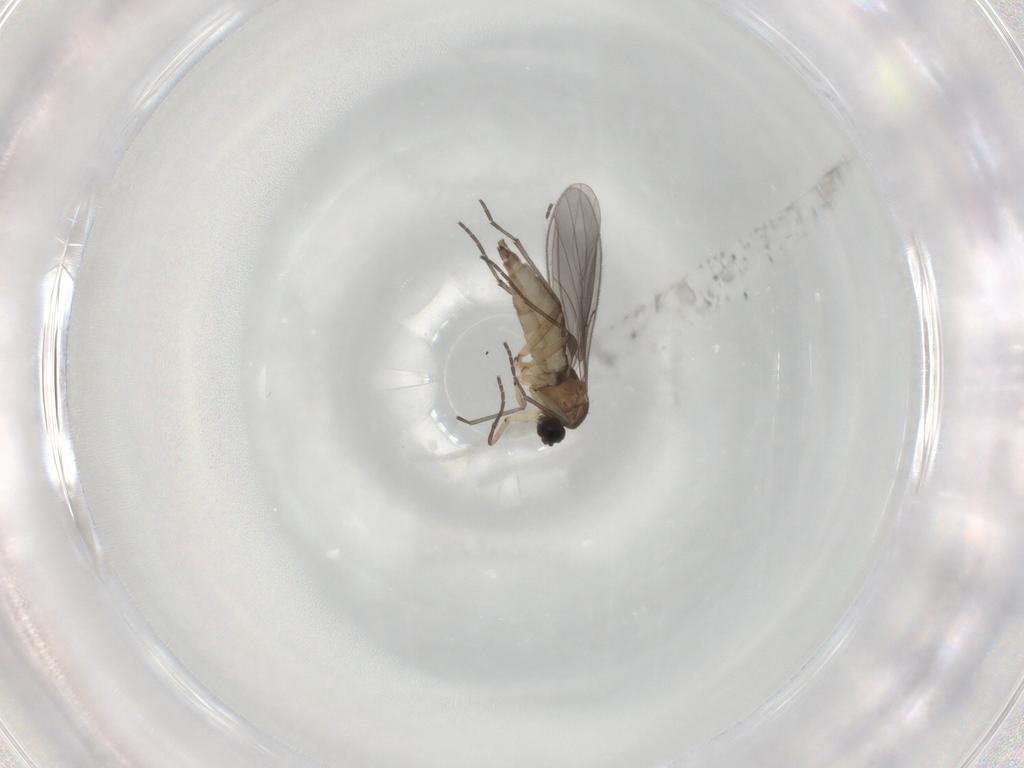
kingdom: Animalia
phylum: Arthropoda
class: Insecta
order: Diptera
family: Sciaridae
